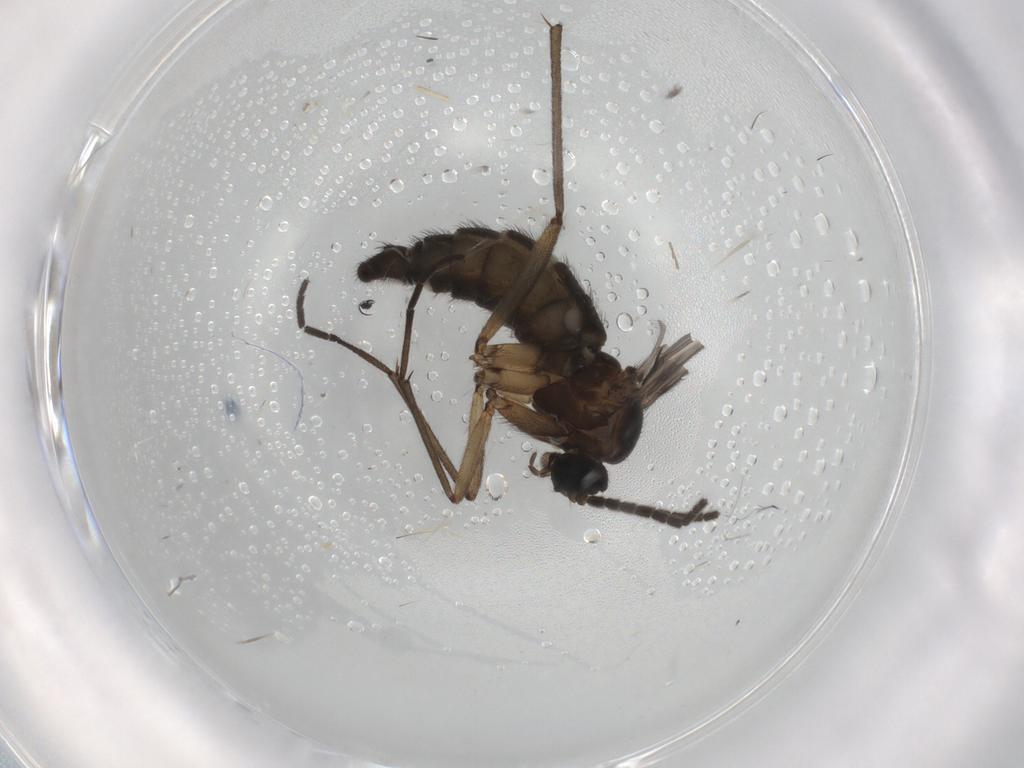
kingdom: Animalia
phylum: Arthropoda
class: Insecta
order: Diptera
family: Sciaridae
